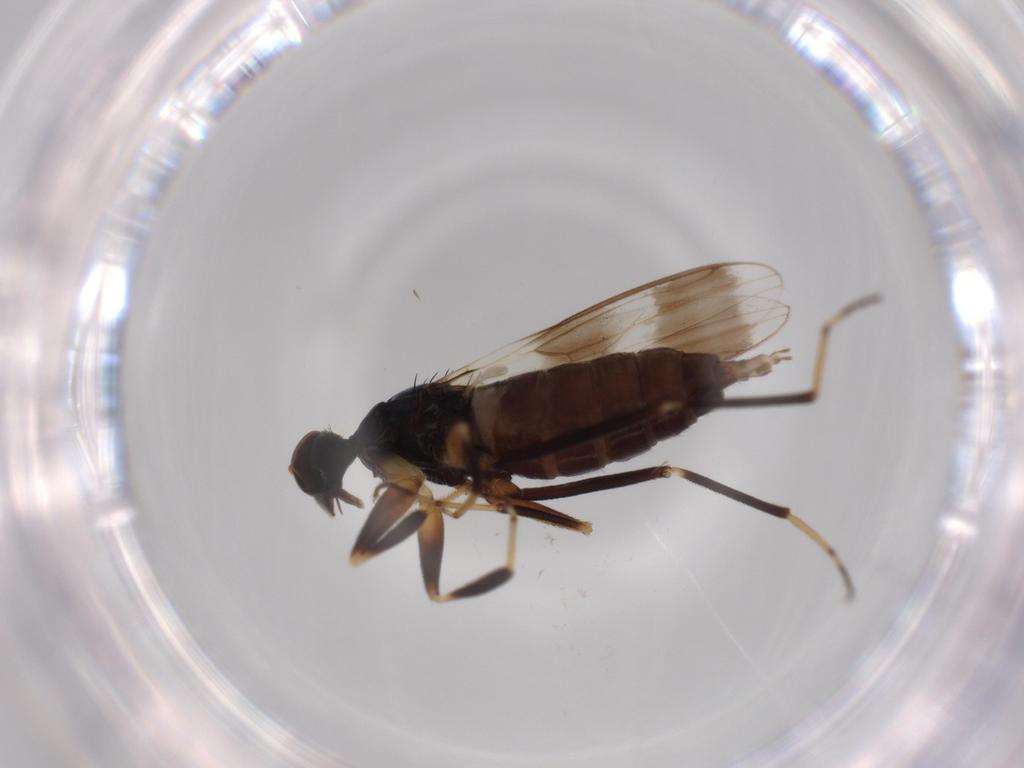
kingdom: Animalia
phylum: Arthropoda
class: Insecta
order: Diptera
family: Hybotidae
